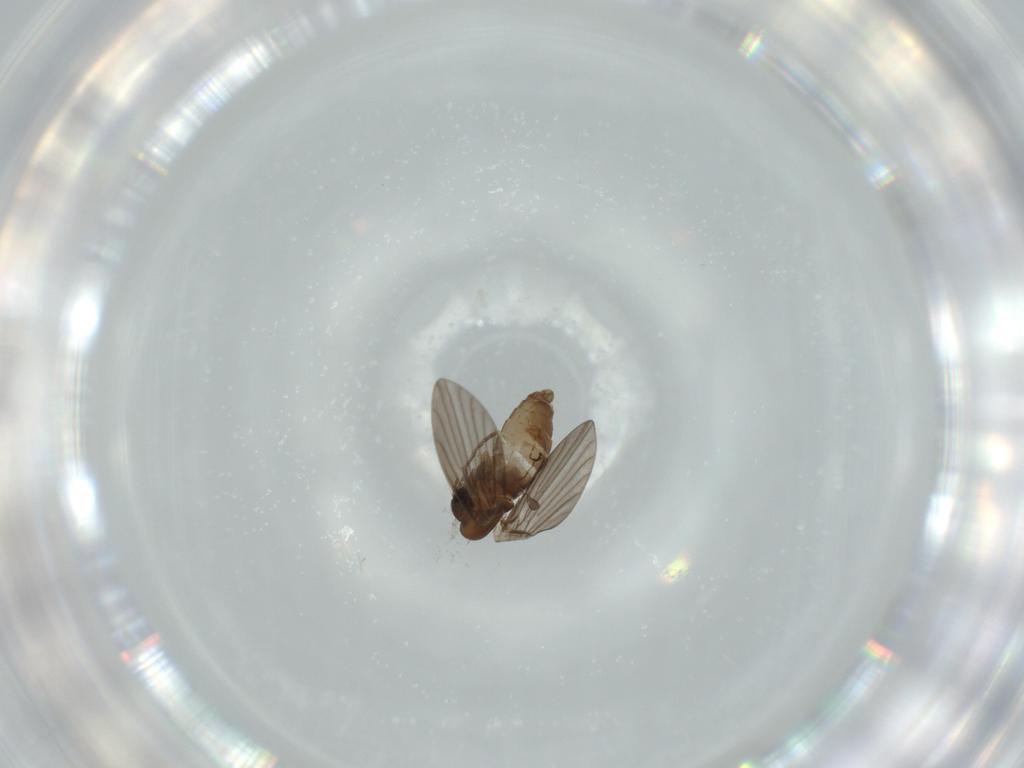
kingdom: Animalia
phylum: Arthropoda
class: Insecta
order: Diptera
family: Psychodidae
